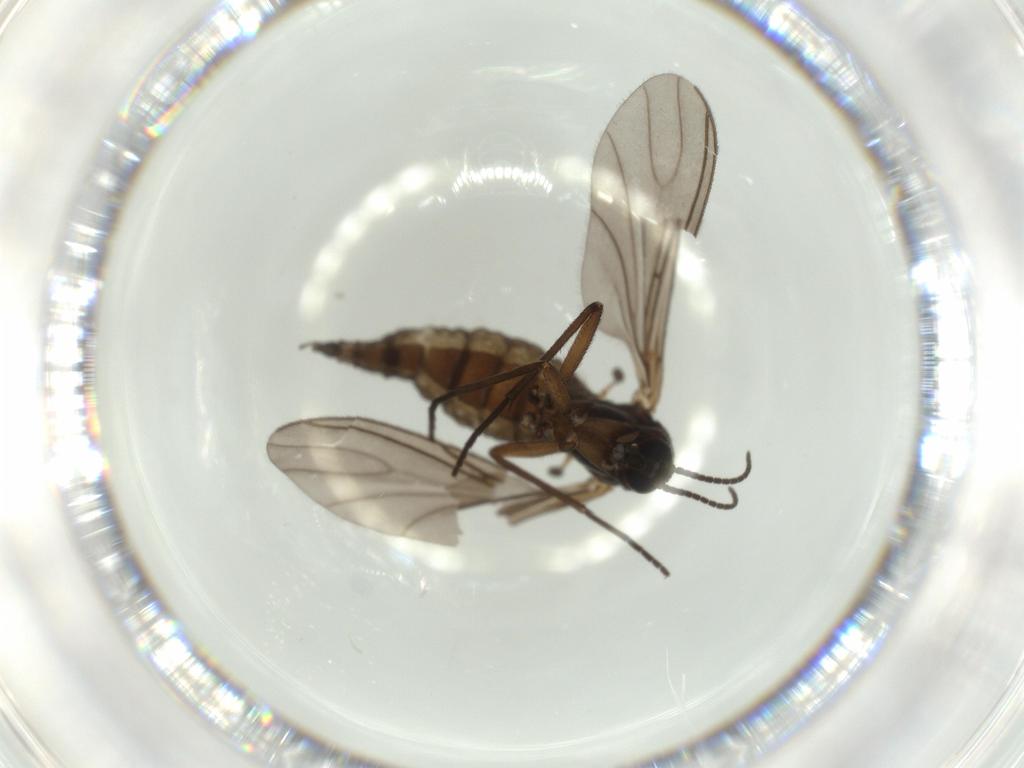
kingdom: Animalia
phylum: Arthropoda
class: Insecta
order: Diptera
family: Sciaridae
